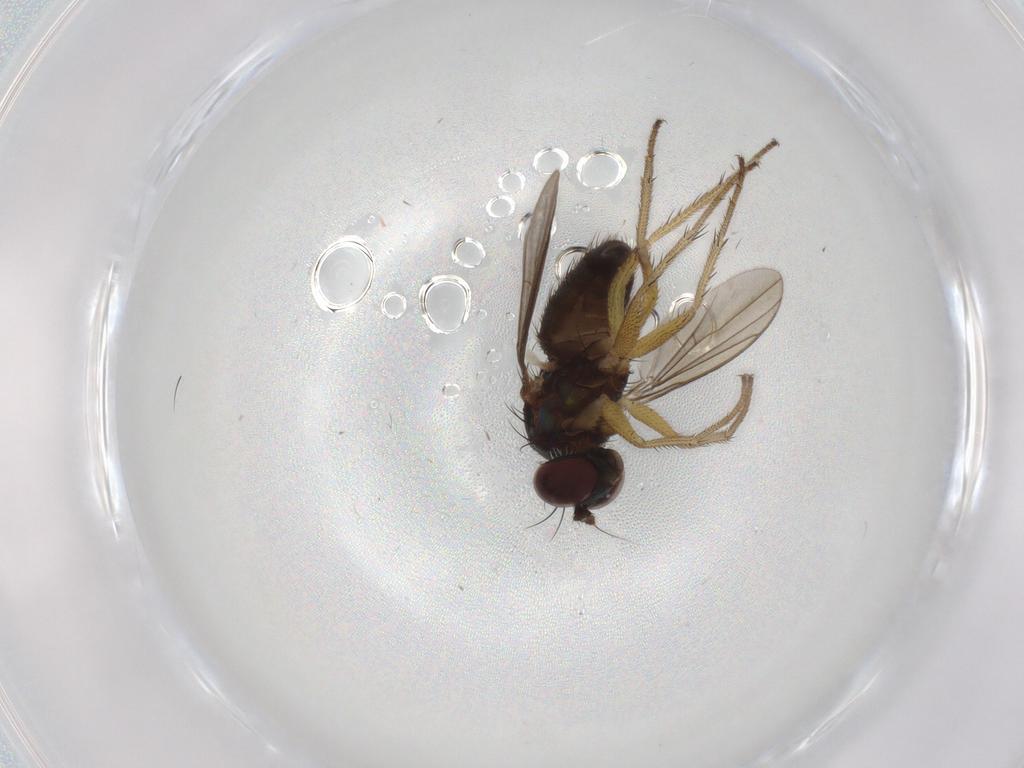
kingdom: Animalia
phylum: Arthropoda
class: Insecta
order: Diptera
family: Dolichopodidae
